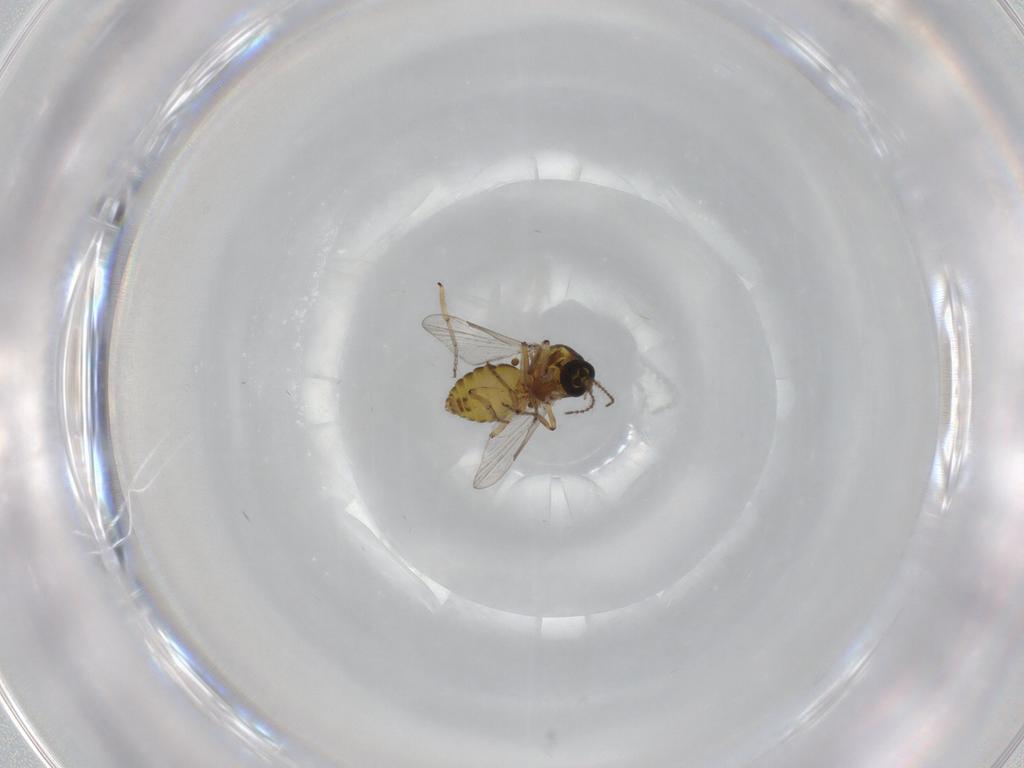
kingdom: Animalia
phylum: Arthropoda
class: Insecta
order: Diptera
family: Ceratopogonidae
